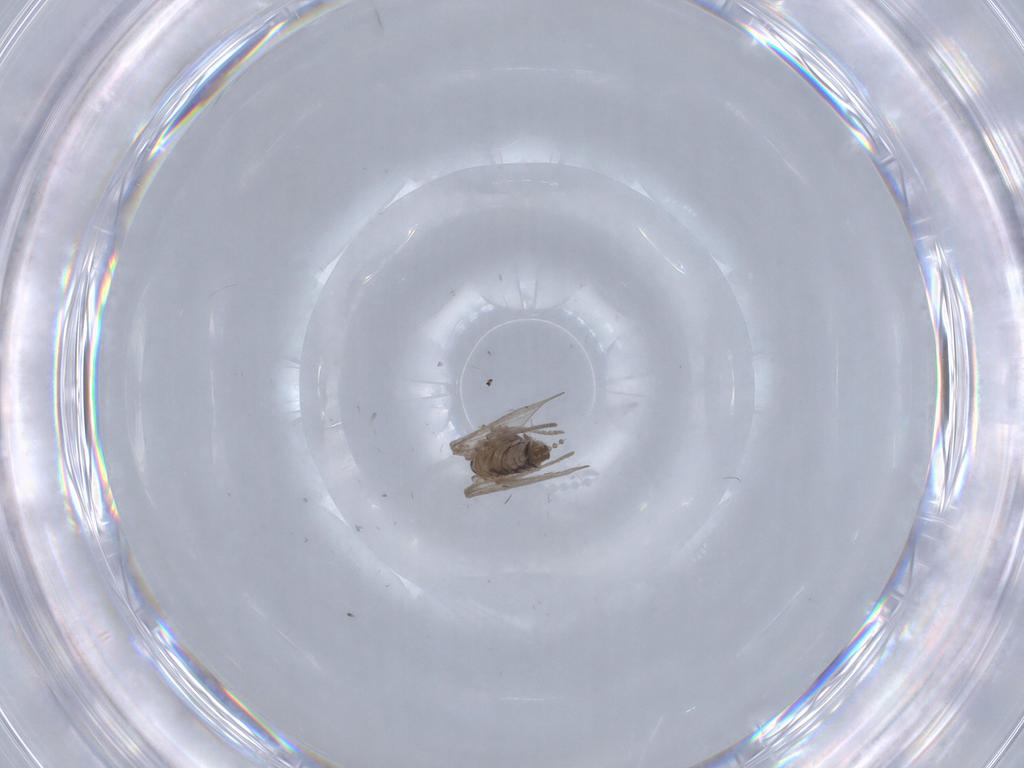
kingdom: Animalia
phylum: Arthropoda
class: Insecta
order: Diptera
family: Psychodidae
